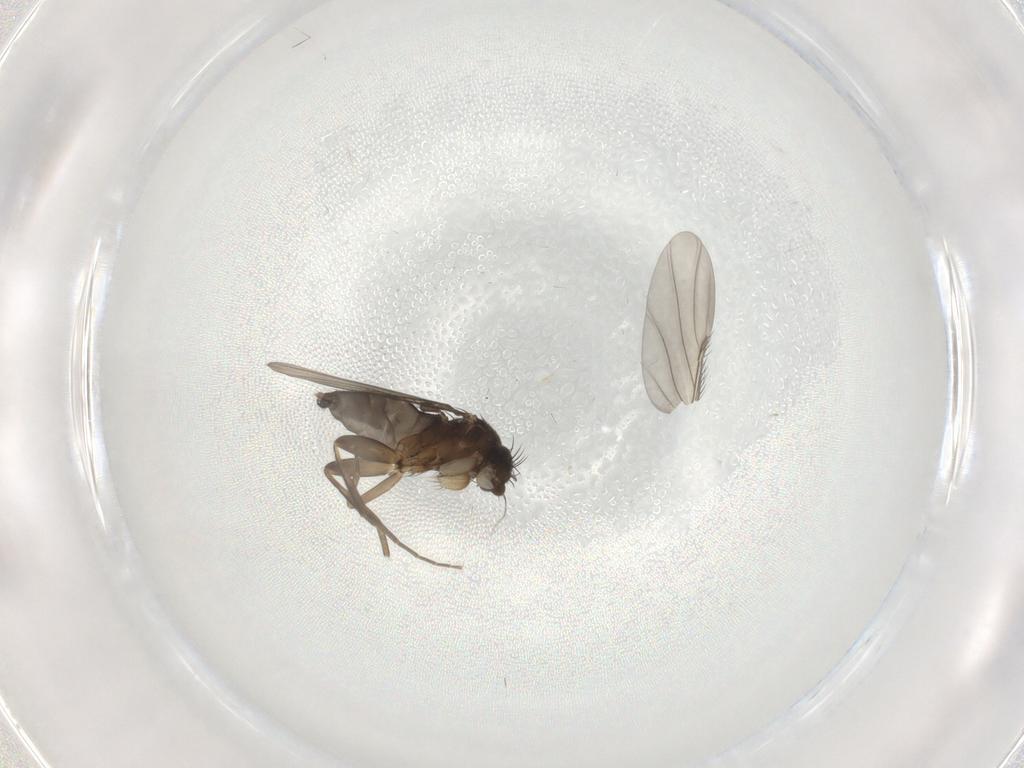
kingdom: Animalia
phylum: Arthropoda
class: Insecta
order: Diptera
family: Phoridae
